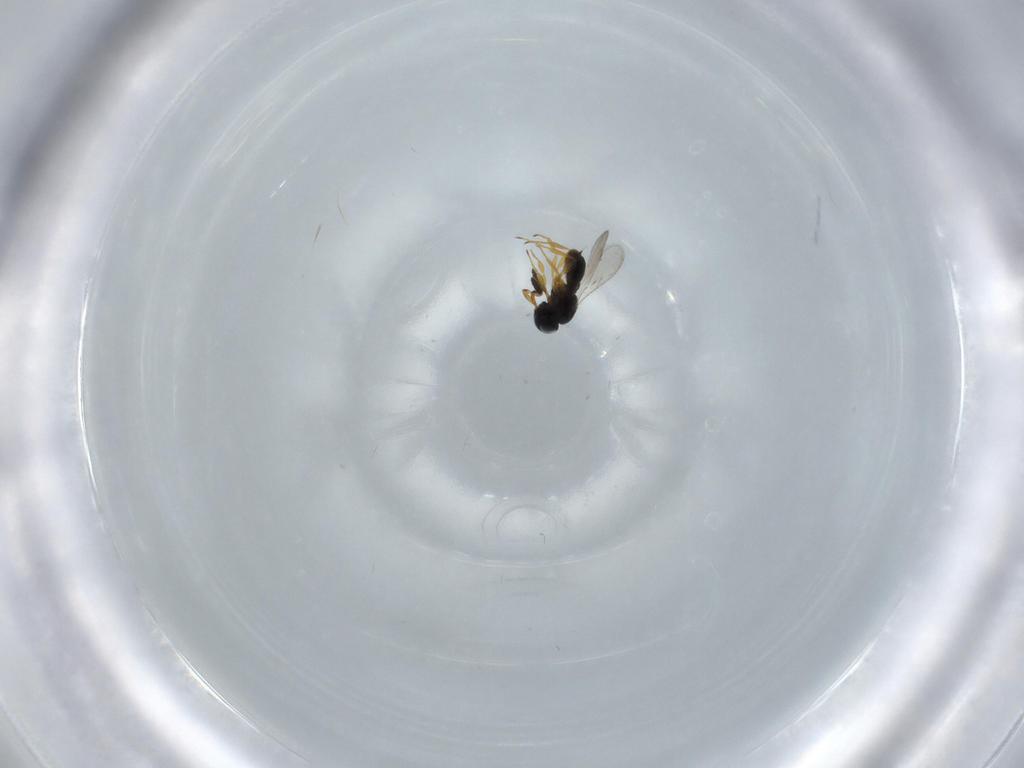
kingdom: Animalia
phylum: Arthropoda
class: Insecta
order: Hymenoptera
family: Scelionidae
